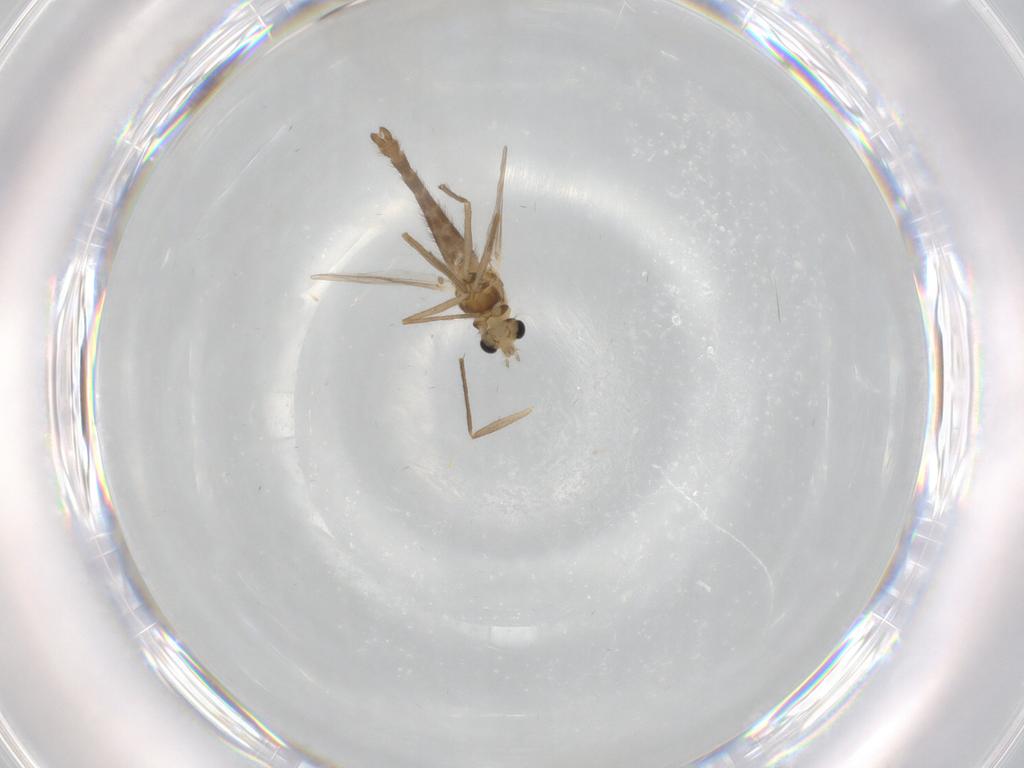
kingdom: Animalia
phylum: Arthropoda
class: Insecta
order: Diptera
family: Chironomidae
